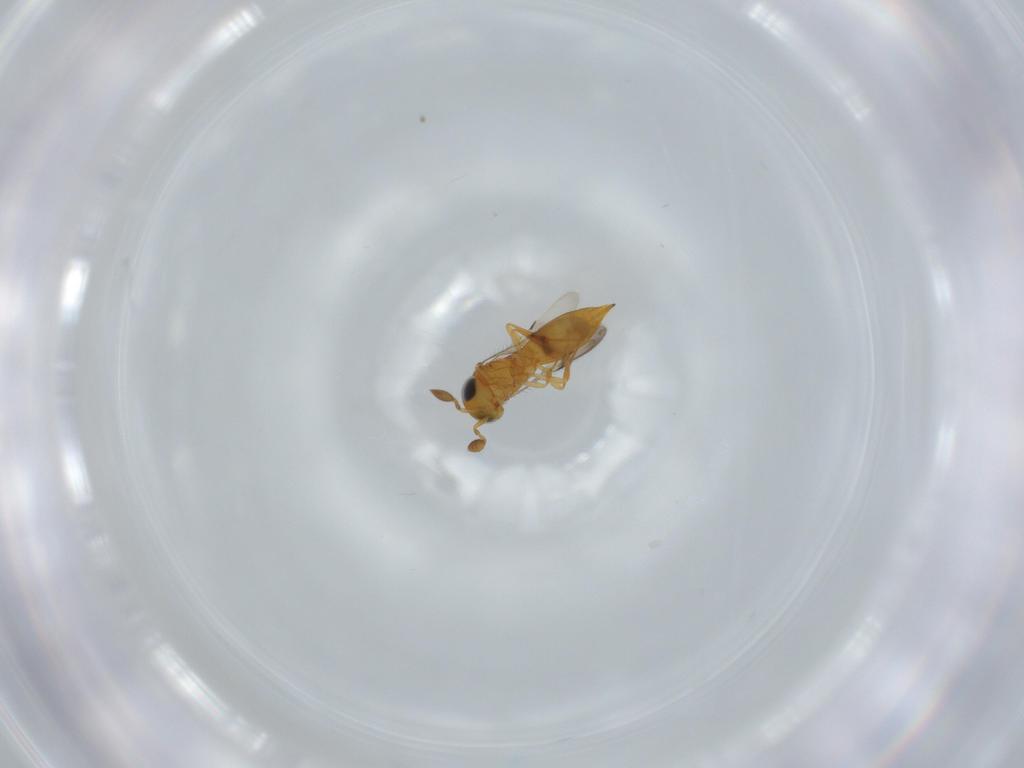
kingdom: Animalia
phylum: Arthropoda
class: Insecta
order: Hymenoptera
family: Scelionidae
